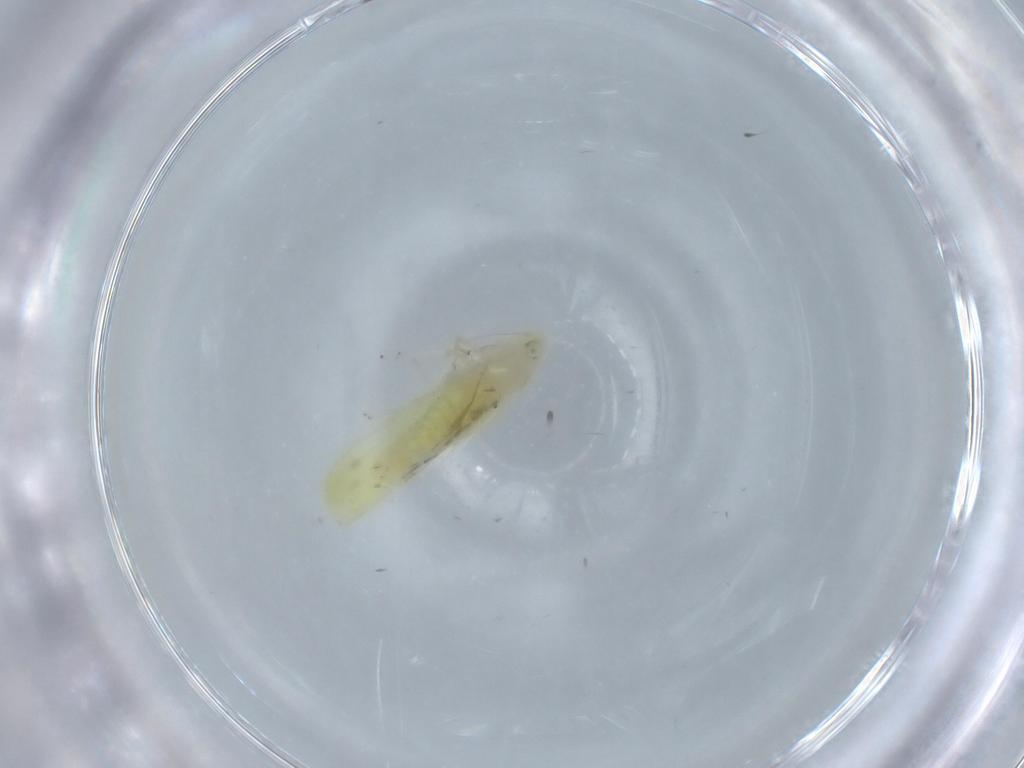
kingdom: Animalia
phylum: Arthropoda
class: Insecta
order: Hemiptera
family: Cicadellidae
